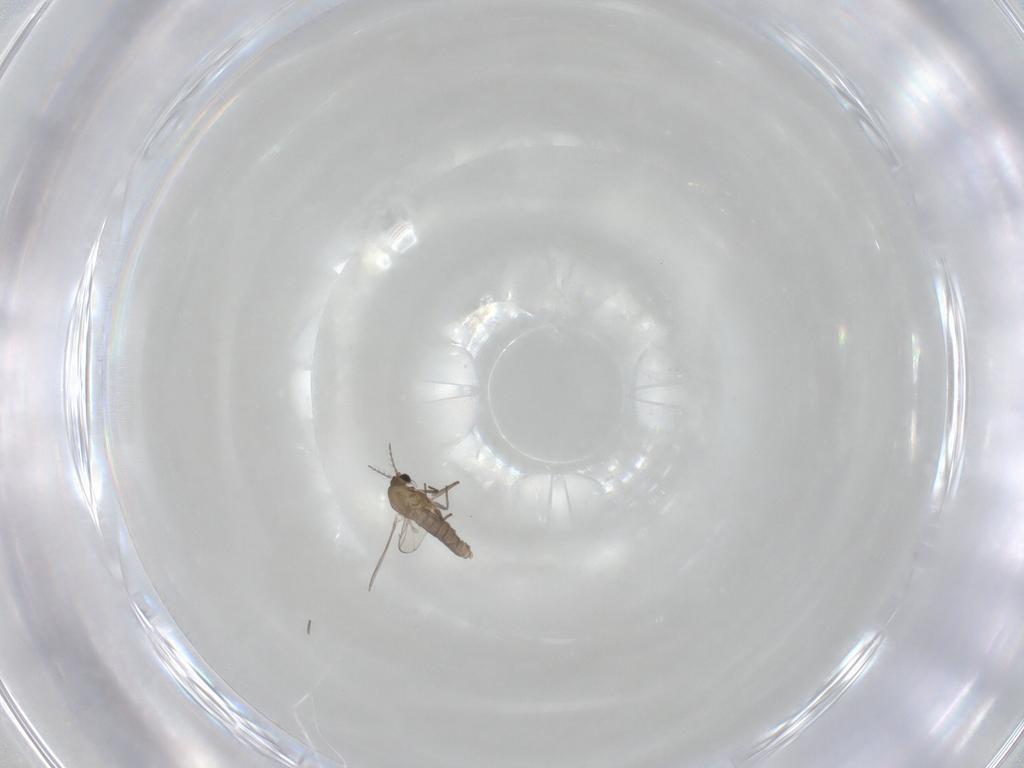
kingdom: Animalia
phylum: Arthropoda
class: Insecta
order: Diptera
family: Chironomidae
